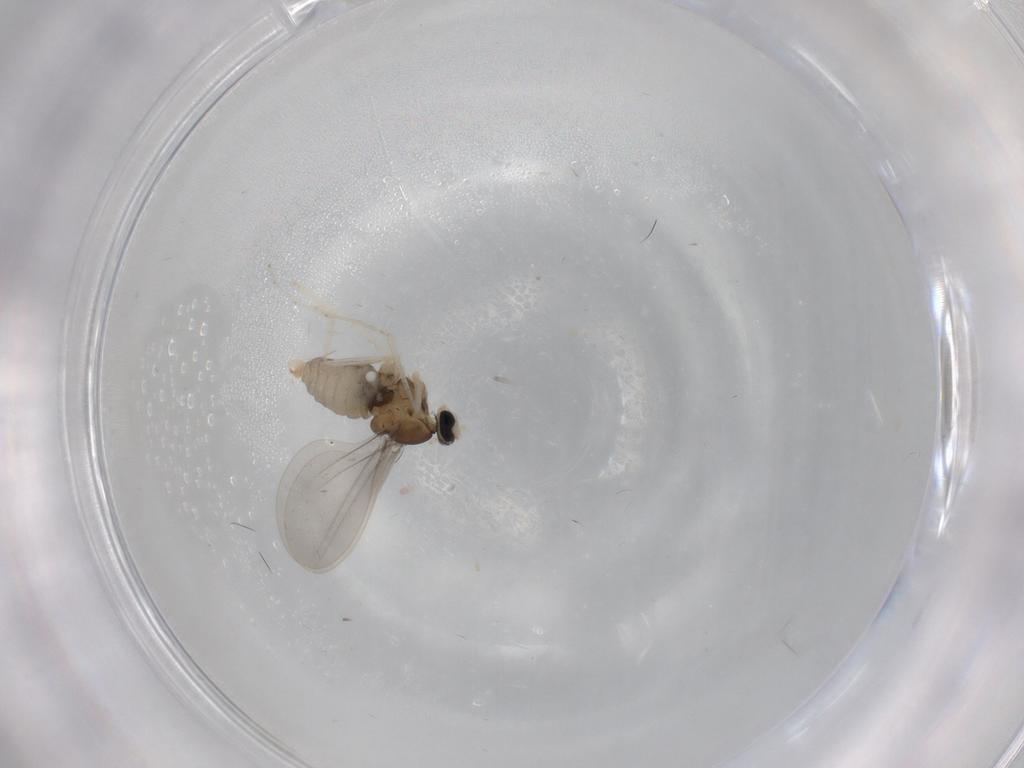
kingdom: Animalia
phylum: Arthropoda
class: Insecta
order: Diptera
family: Cecidomyiidae
